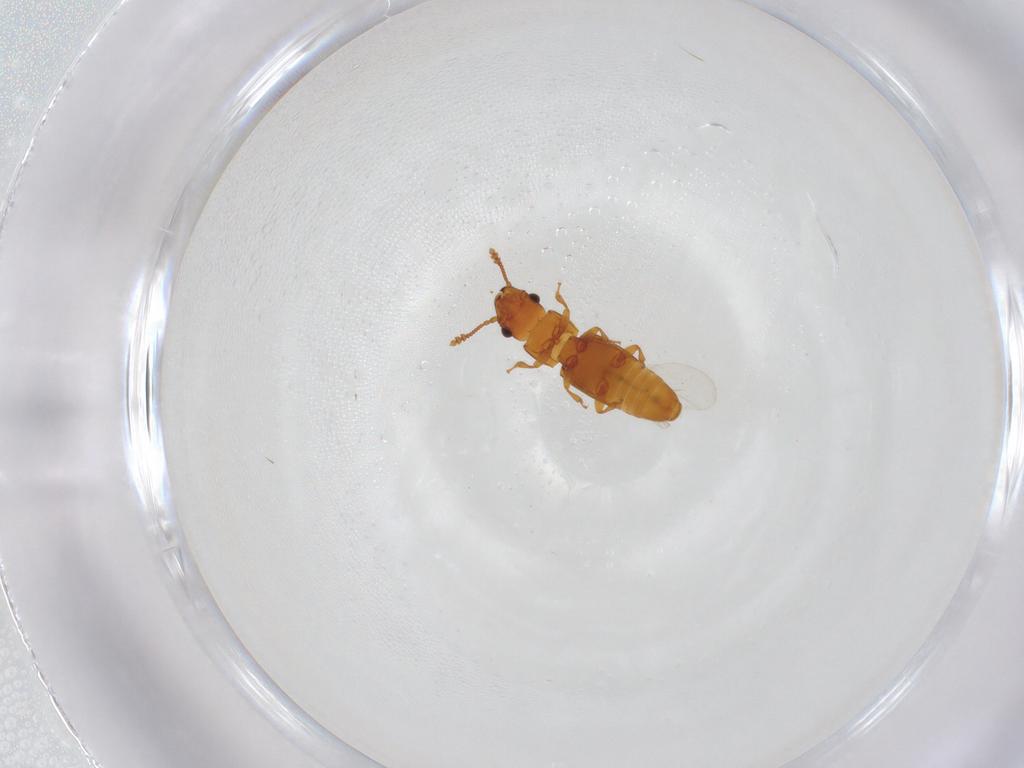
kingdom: Animalia
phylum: Arthropoda
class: Insecta
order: Coleoptera
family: Smicripidae
